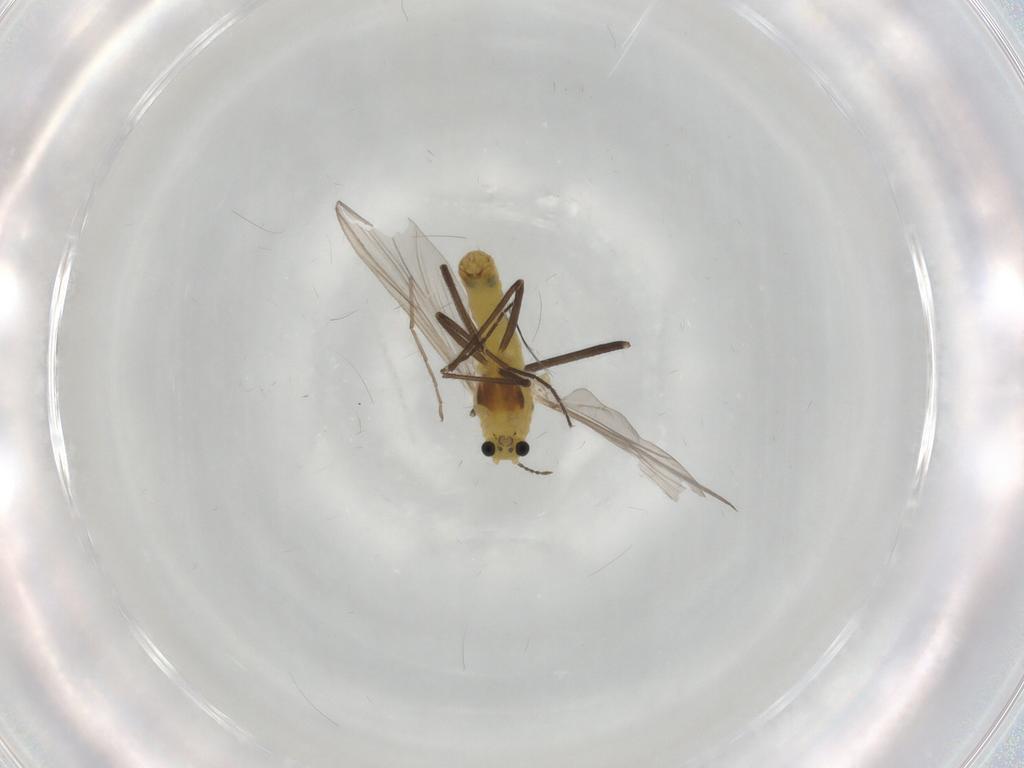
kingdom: Animalia
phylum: Arthropoda
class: Insecta
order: Diptera
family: Chironomidae
